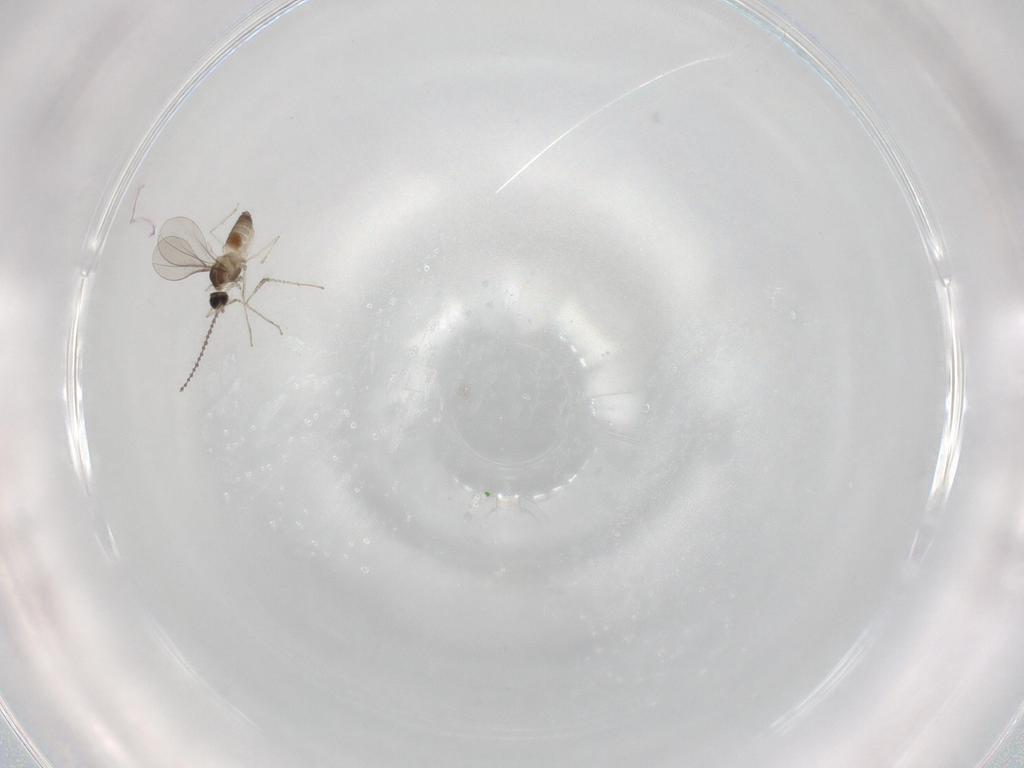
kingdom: Animalia
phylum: Arthropoda
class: Insecta
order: Diptera
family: Cecidomyiidae
